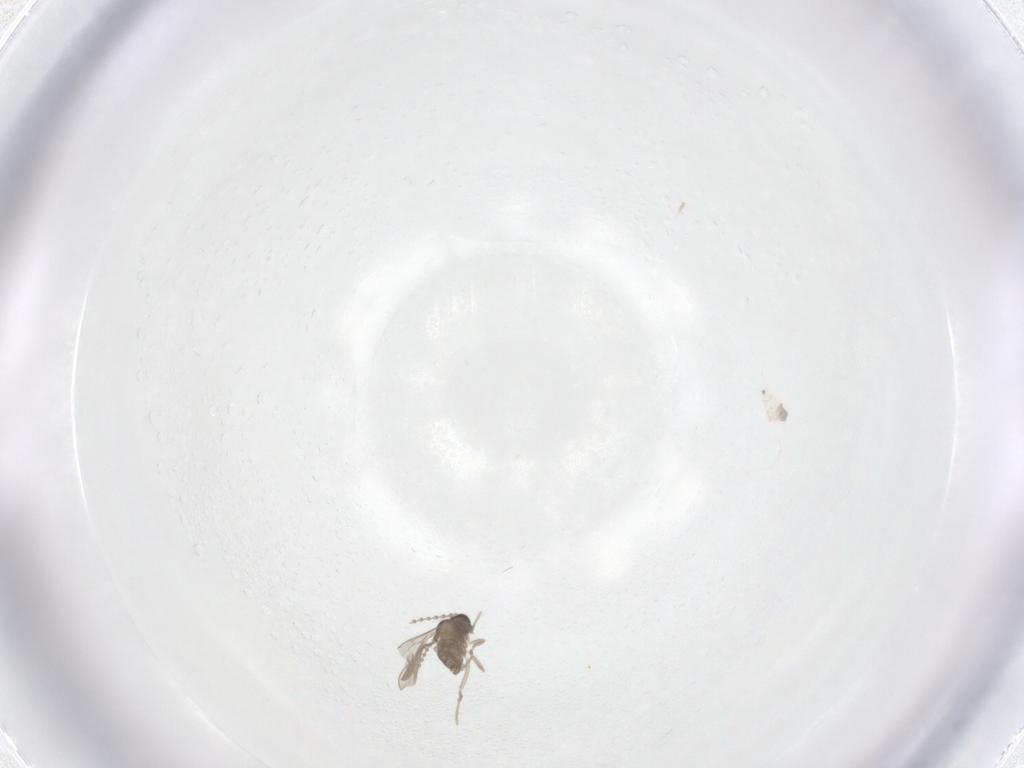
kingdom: Animalia
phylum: Arthropoda
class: Insecta
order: Diptera
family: Cecidomyiidae
